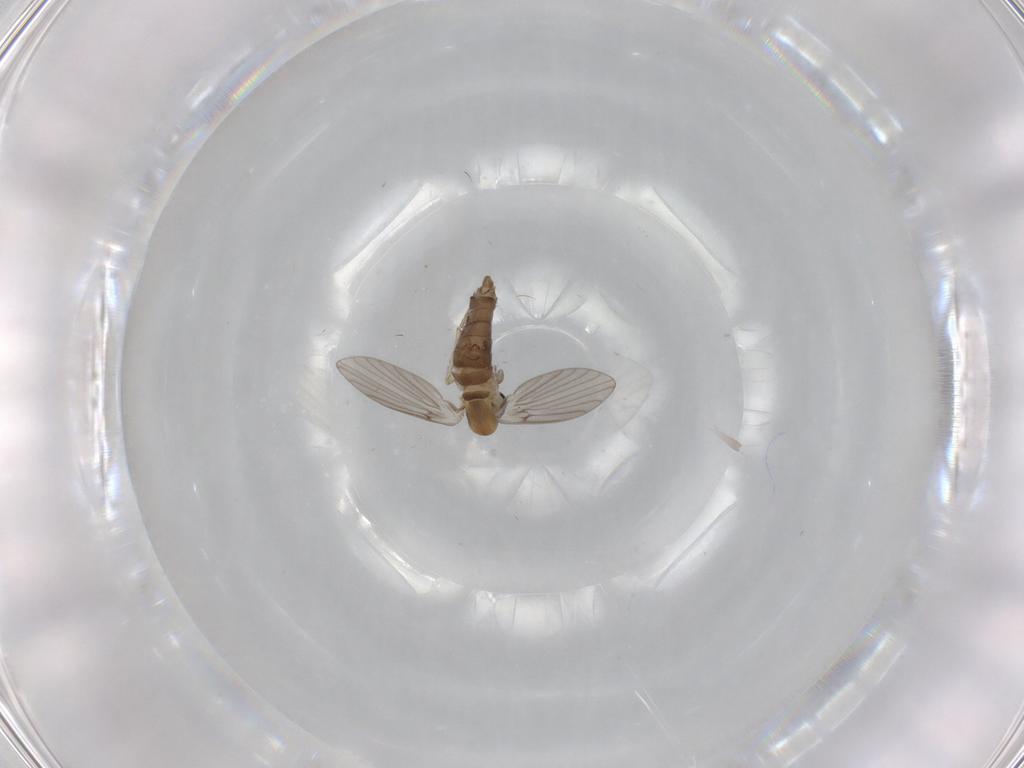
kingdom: Animalia
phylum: Arthropoda
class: Insecta
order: Diptera
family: Psychodidae
